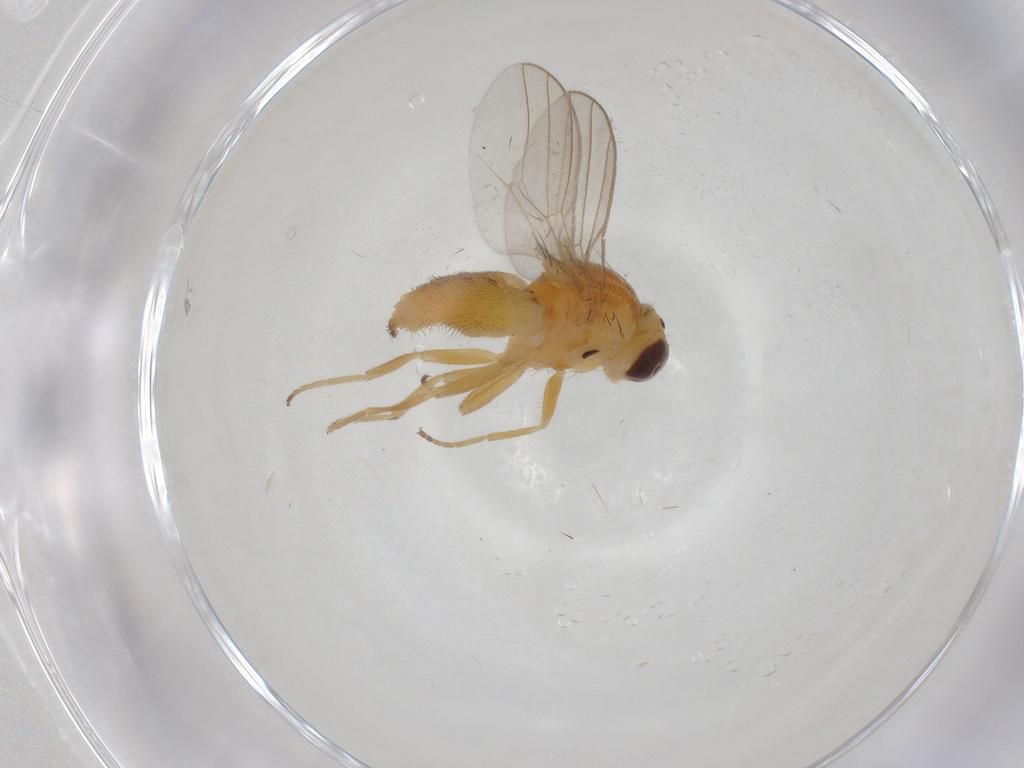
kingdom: Animalia
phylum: Arthropoda
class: Insecta
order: Diptera
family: Chloropidae
